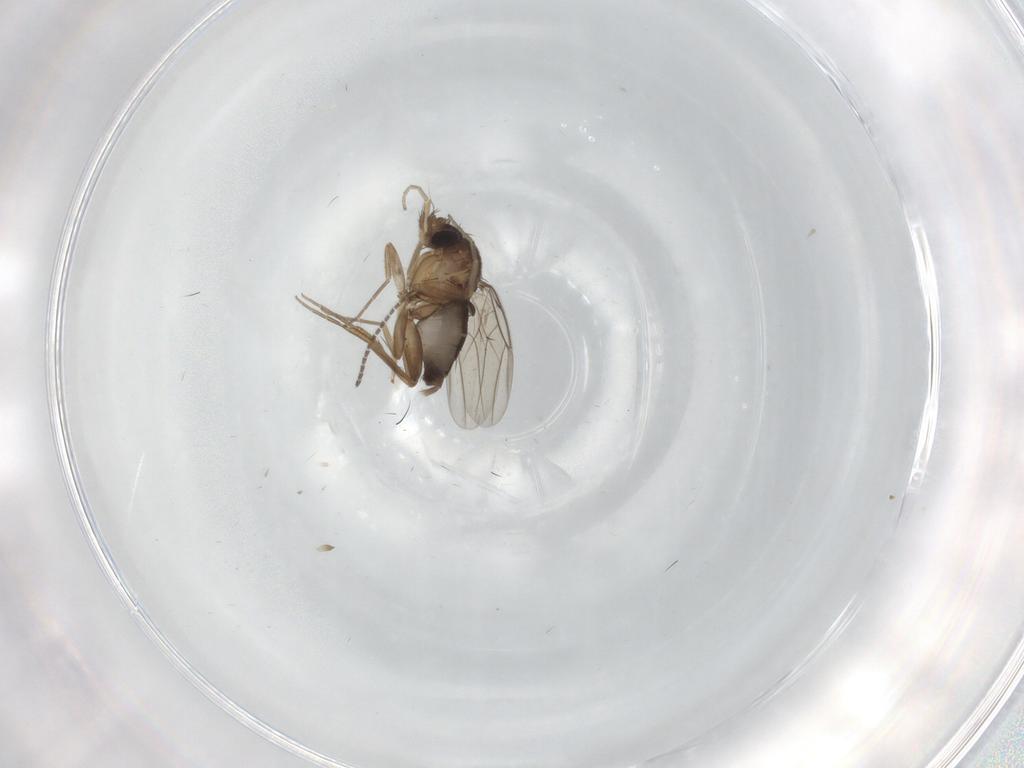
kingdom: Animalia
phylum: Arthropoda
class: Insecta
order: Diptera
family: Phoridae
